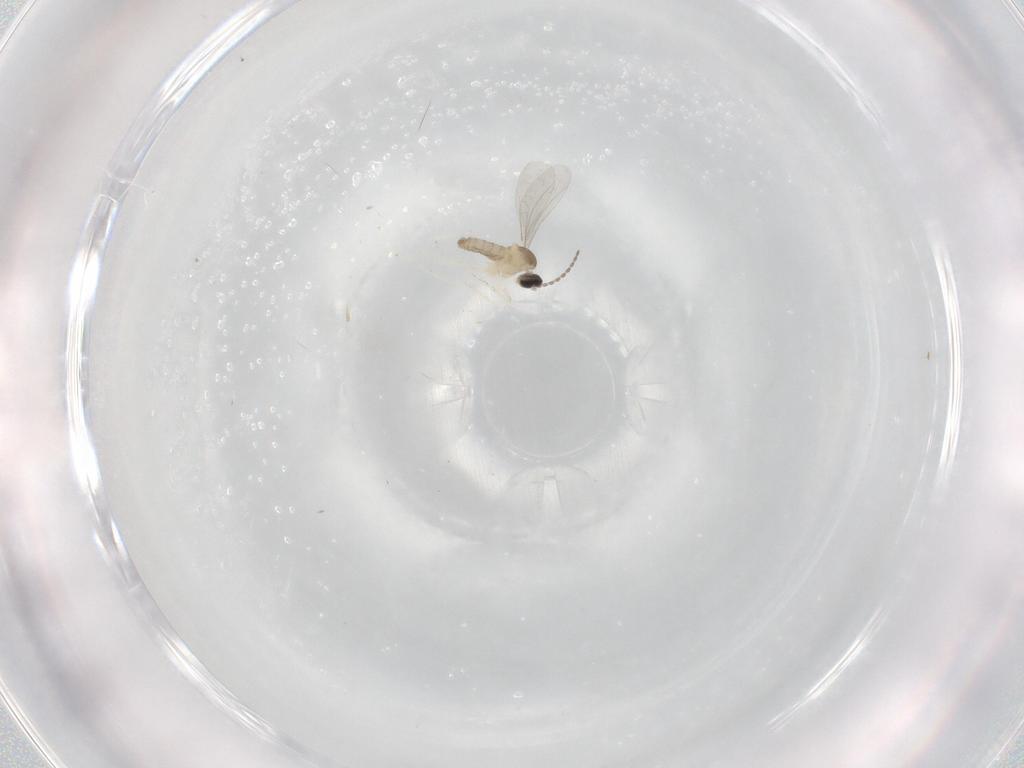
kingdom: Animalia
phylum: Arthropoda
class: Insecta
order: Diptera
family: Cecidomyiidae
